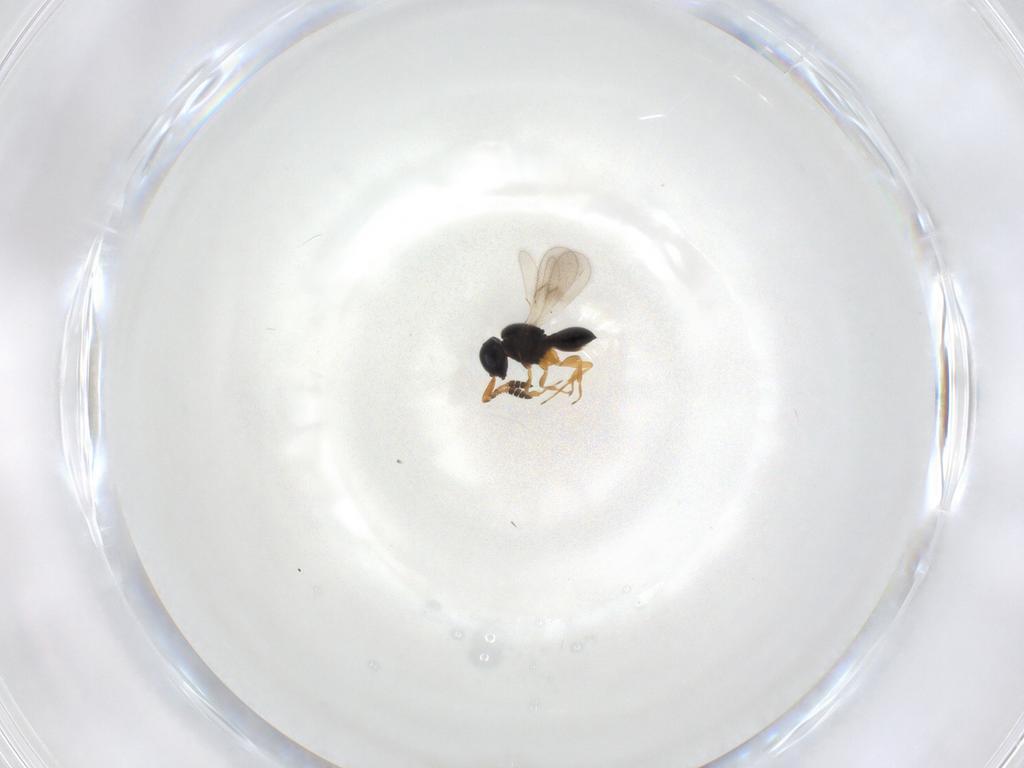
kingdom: Animalia
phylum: Arthropoda
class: Insecta
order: Hymenoptera
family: Scelionidae
